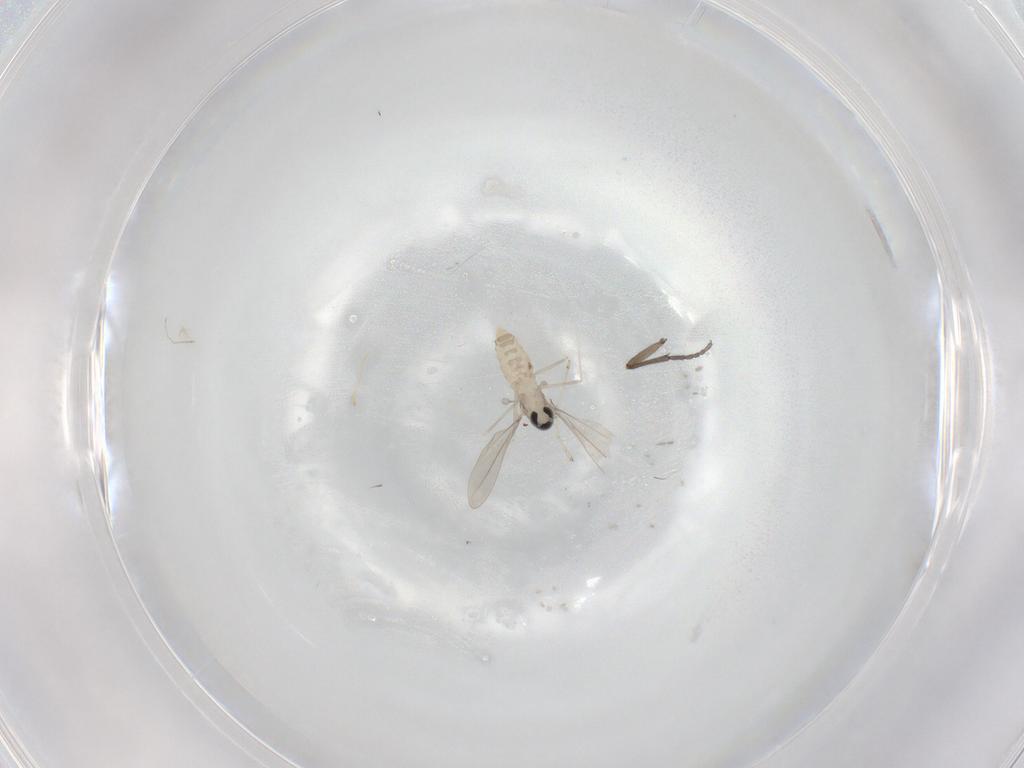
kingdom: Animalia
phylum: Arthropoda
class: Insecta
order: Diptera
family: Cecidomyiidae
